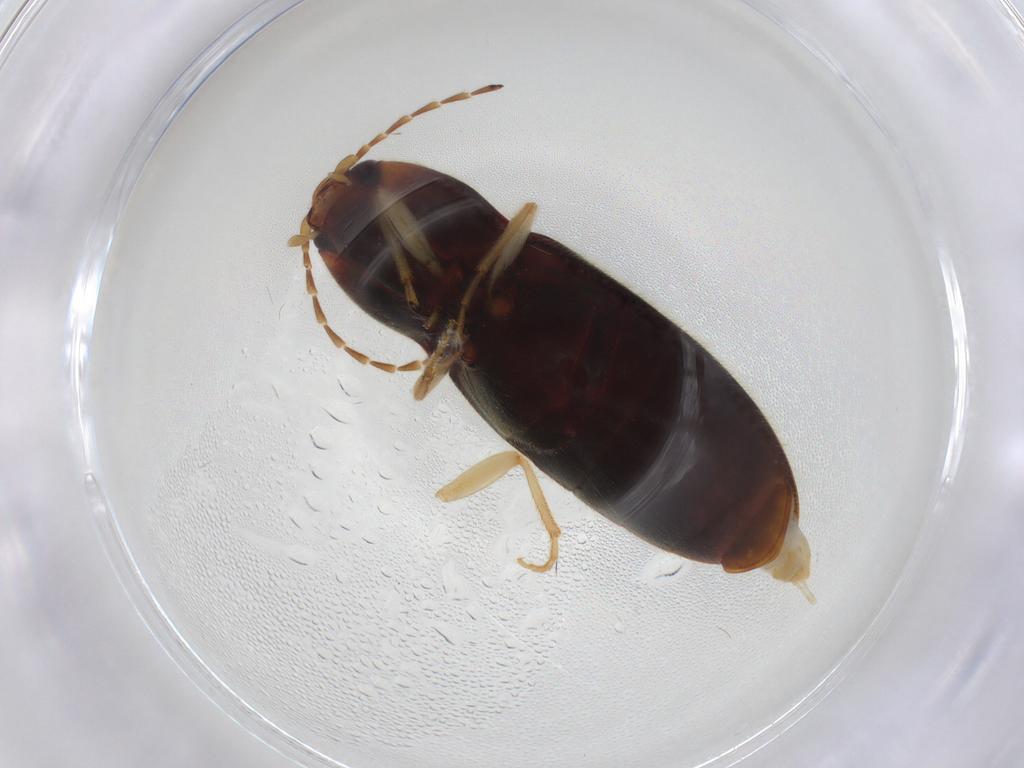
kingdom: Animalia
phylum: Arthropoda
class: Insecta
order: Coleoptera
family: Elateridae
